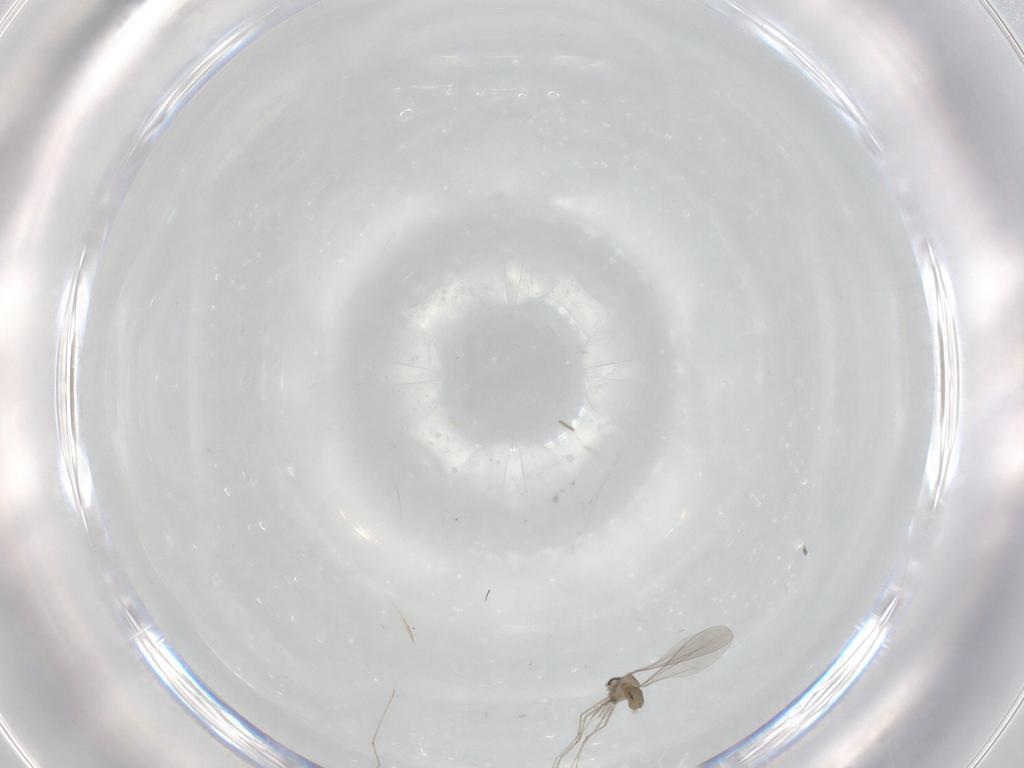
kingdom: Animalia
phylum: Arthropoda
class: Insecta
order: Diptera
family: Cecidomyiidae
